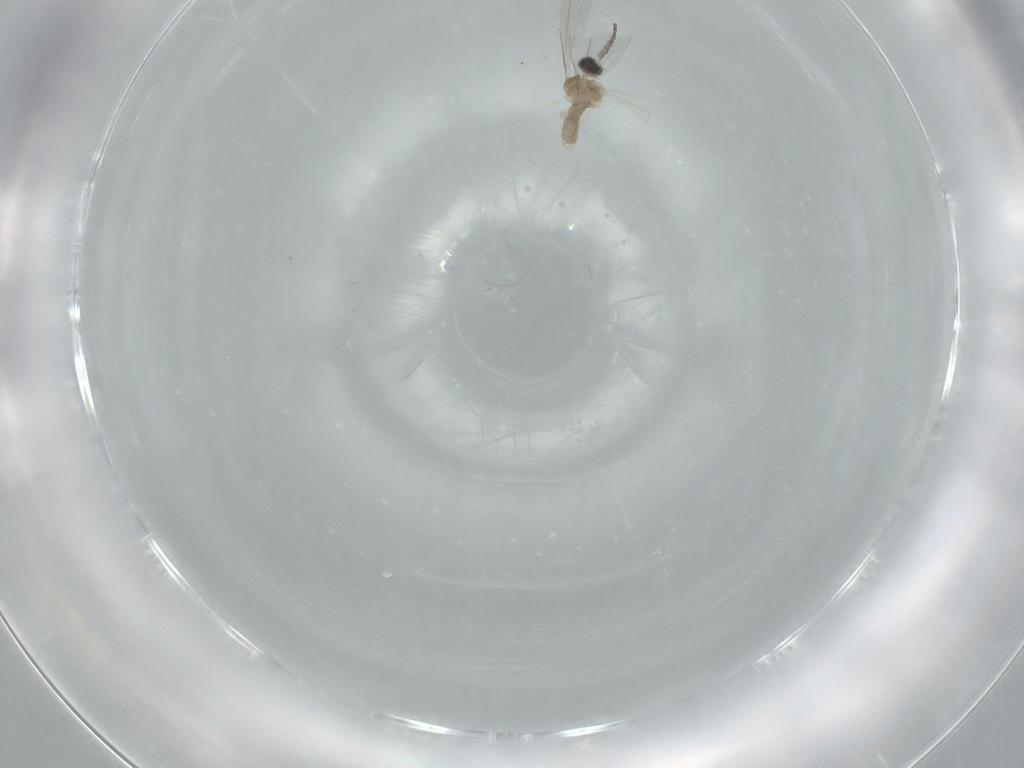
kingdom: Animalia
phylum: Arthropoda
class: Insecta
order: Diptera
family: Cecidomyiidae
